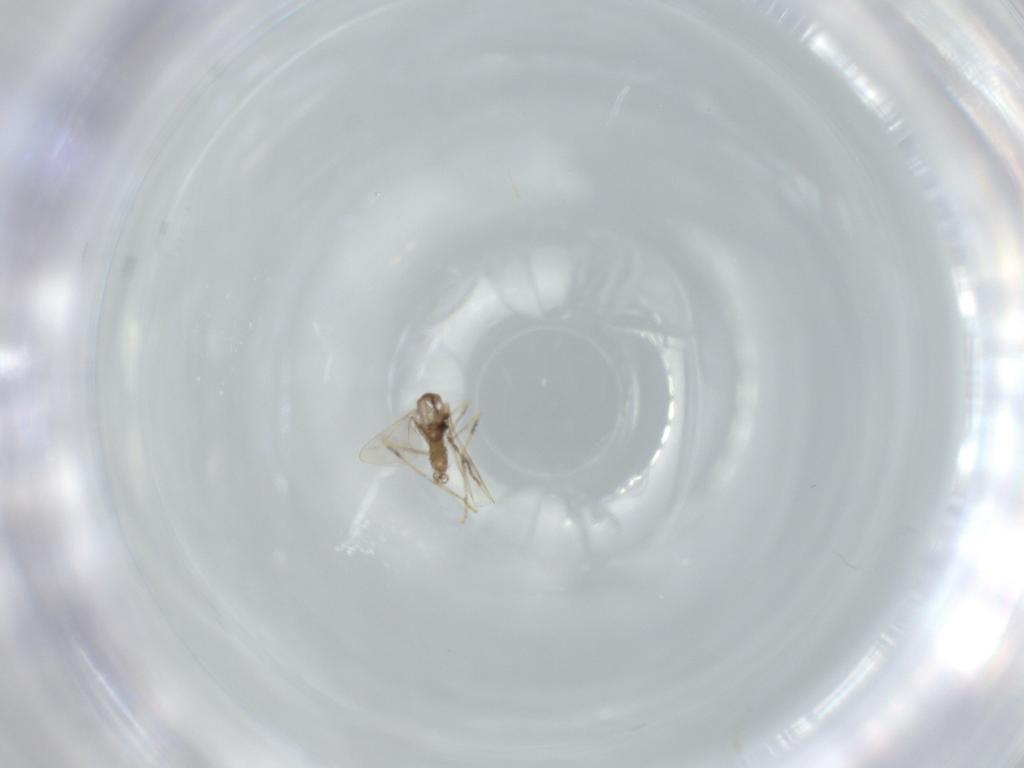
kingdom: Animalia
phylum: Arthropoda
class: Insecta
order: Diptera
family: Cecidomyiidae
